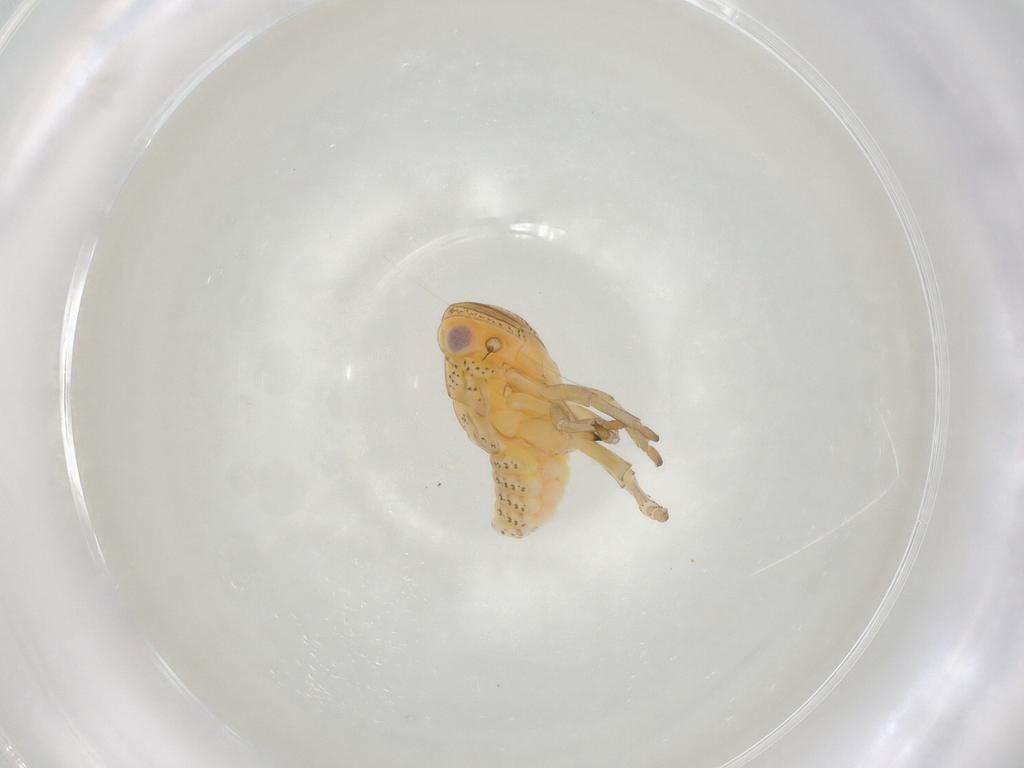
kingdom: Animalia
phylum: Arthropoda
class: Insecta
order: Hemiptera
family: Tropiduchidae
